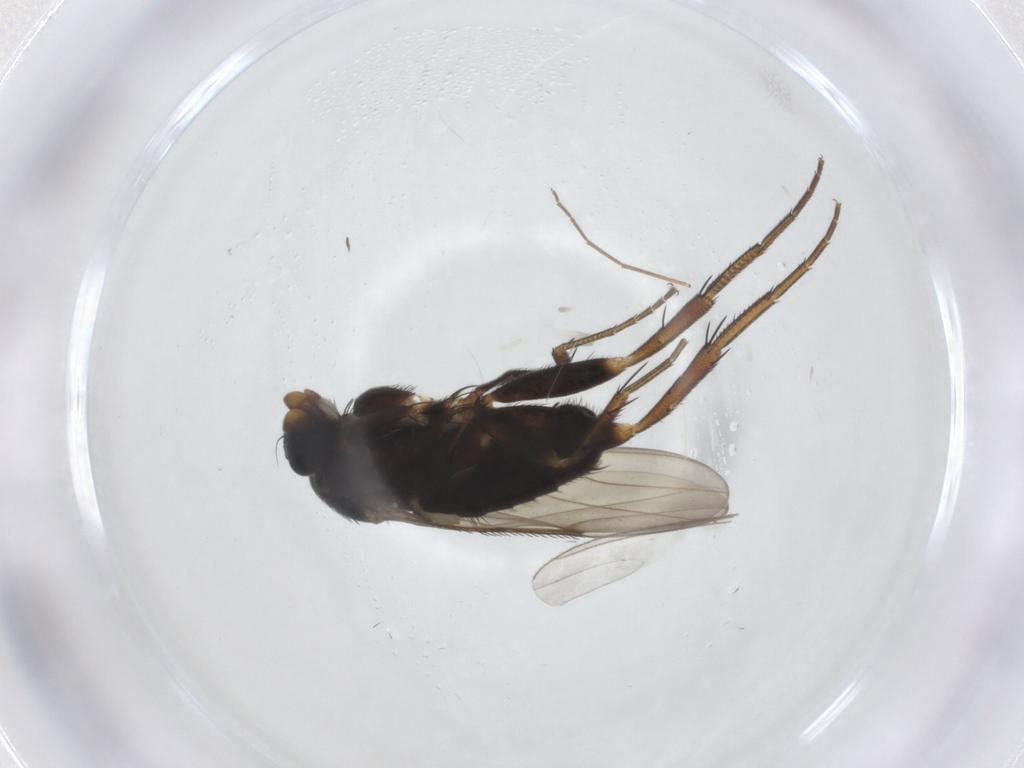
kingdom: Animalia
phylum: Arthropoda
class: Insecta
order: Diptera
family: Chironomidae
